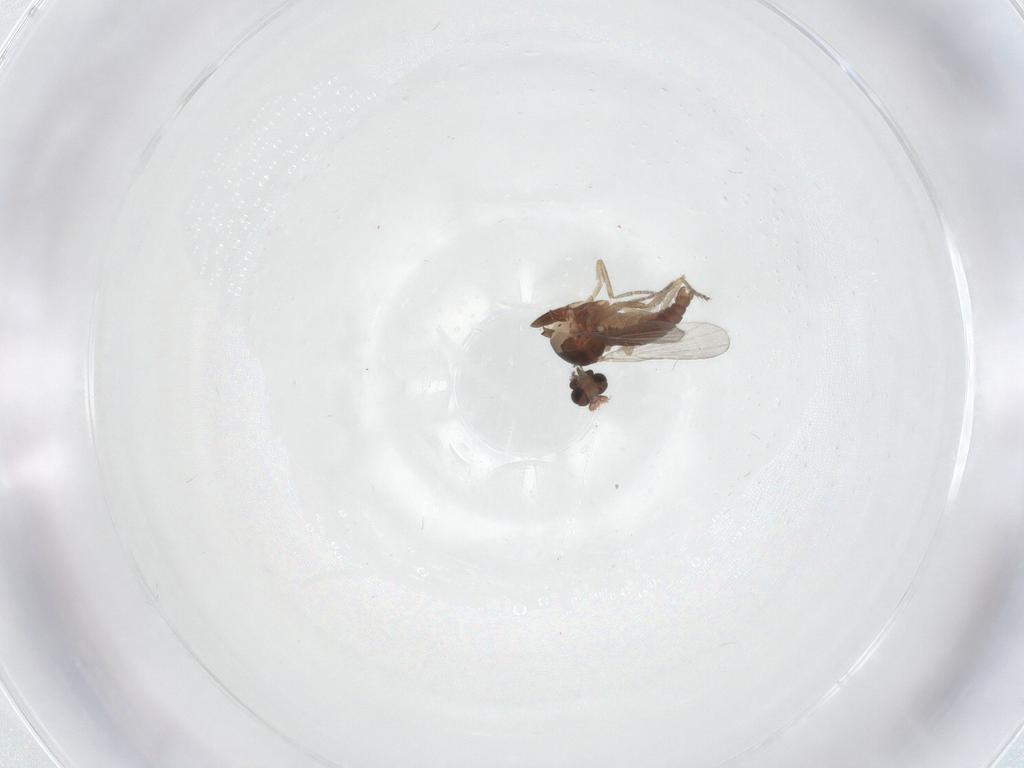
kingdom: Animalia
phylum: Arthropoda
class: Insecta
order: Diptera
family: Ceratopogonidae
